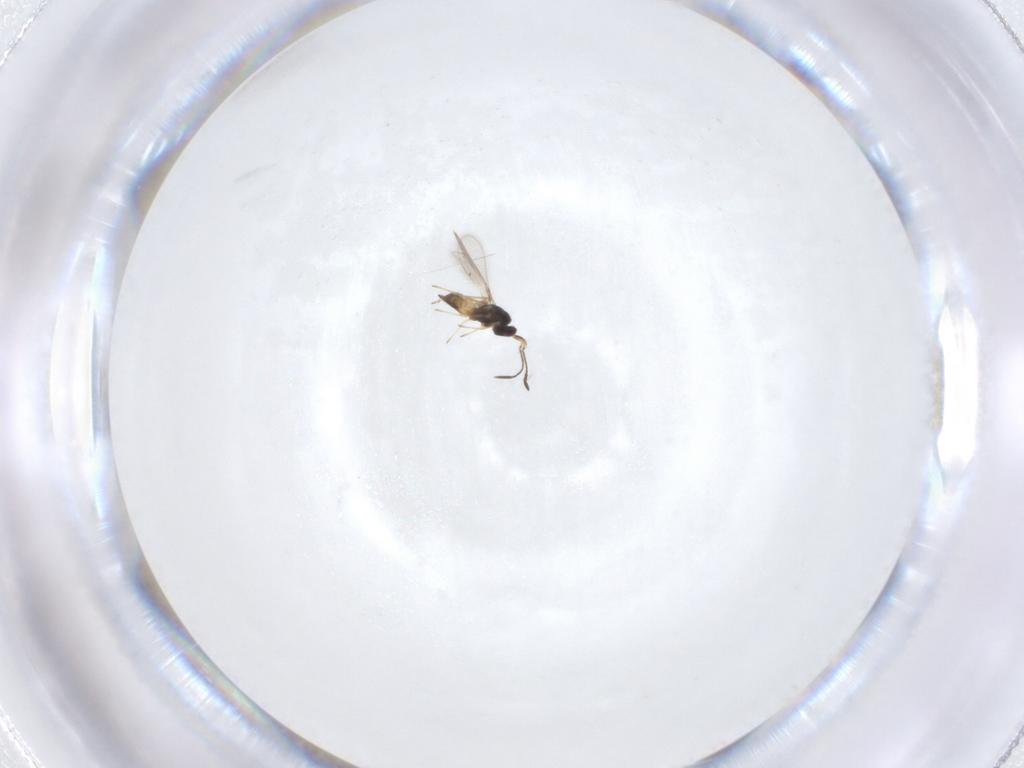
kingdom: Animalia
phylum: Arthropoda
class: Insecta
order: Hymenoptera
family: Mymaridae
